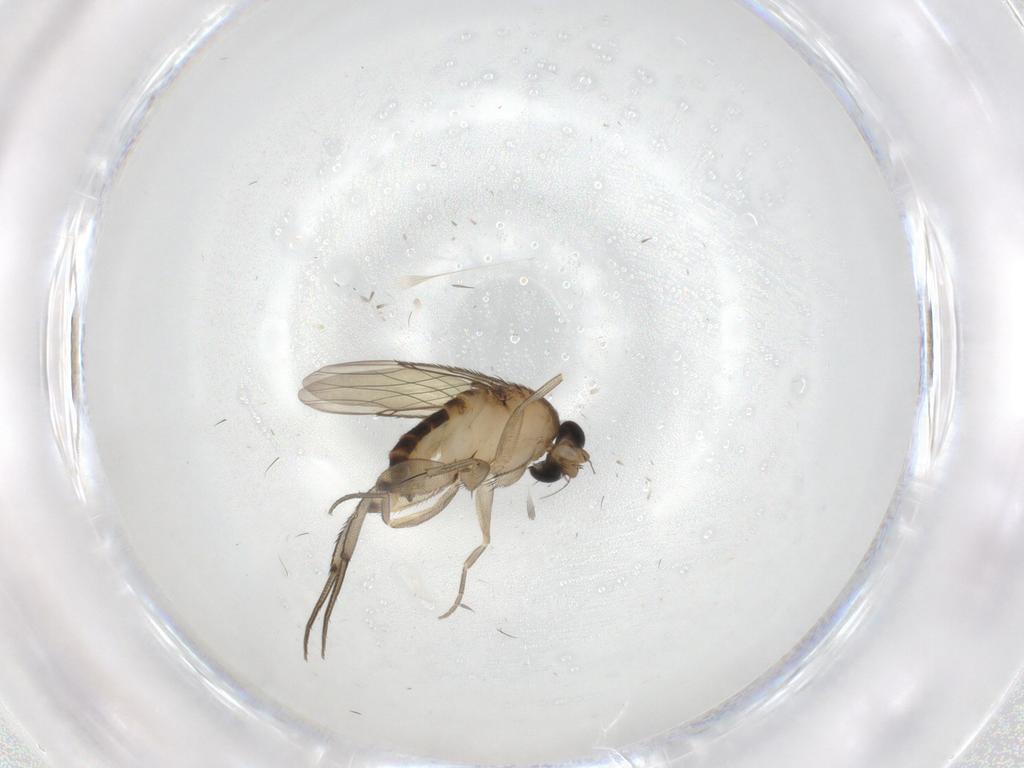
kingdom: Animalia
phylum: Arthropoda
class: Insecta
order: Diptera
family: Phoridae
